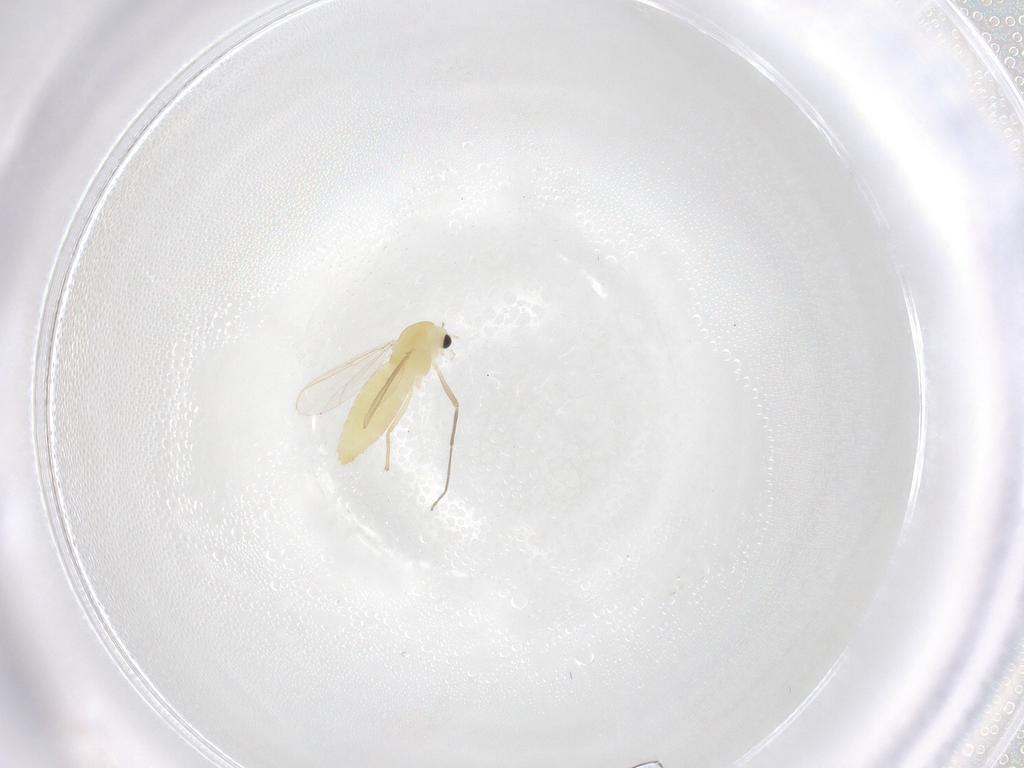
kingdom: Animalia
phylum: Arthropoda
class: Insecta
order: Diptera
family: Chironomidae
